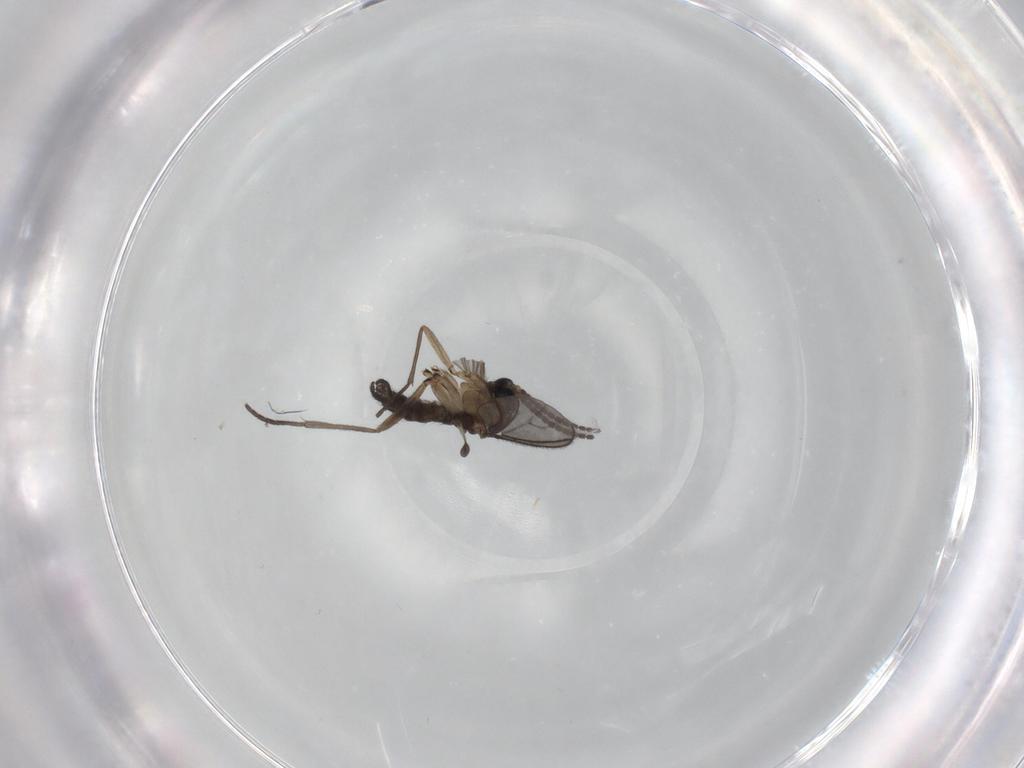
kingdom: Animalia
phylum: Arthropoda
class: Insecta
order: Diptera
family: Sciaridae
